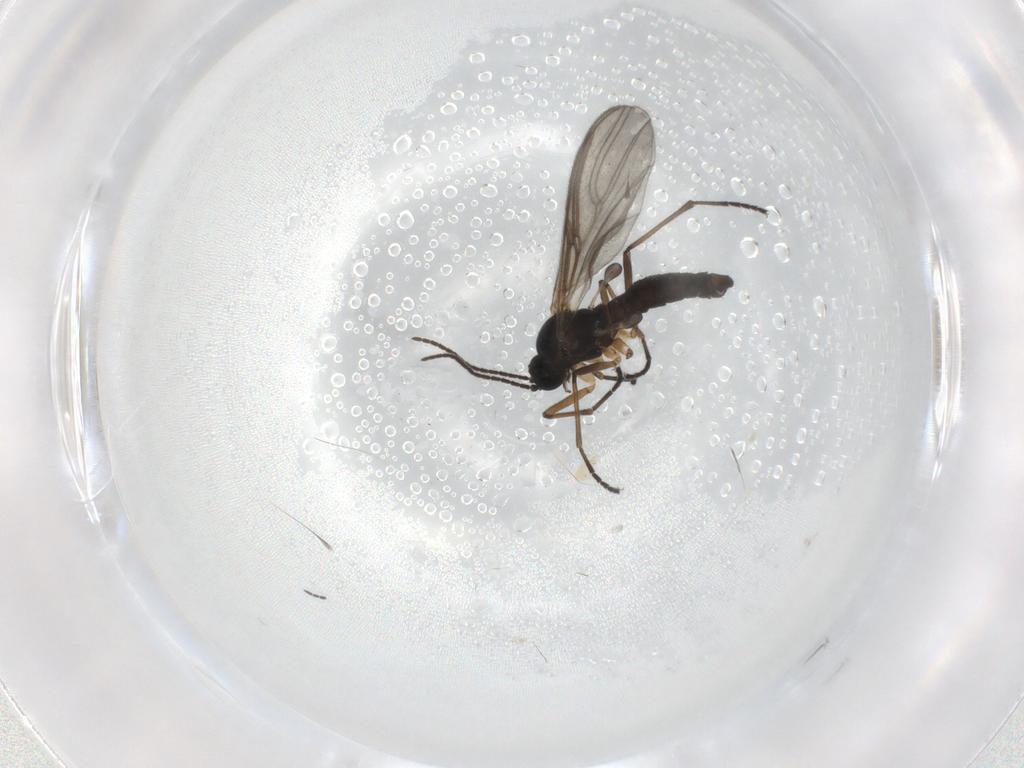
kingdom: Animalia
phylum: Arthropoda
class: Insecta
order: Diptera
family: Sciaridae
